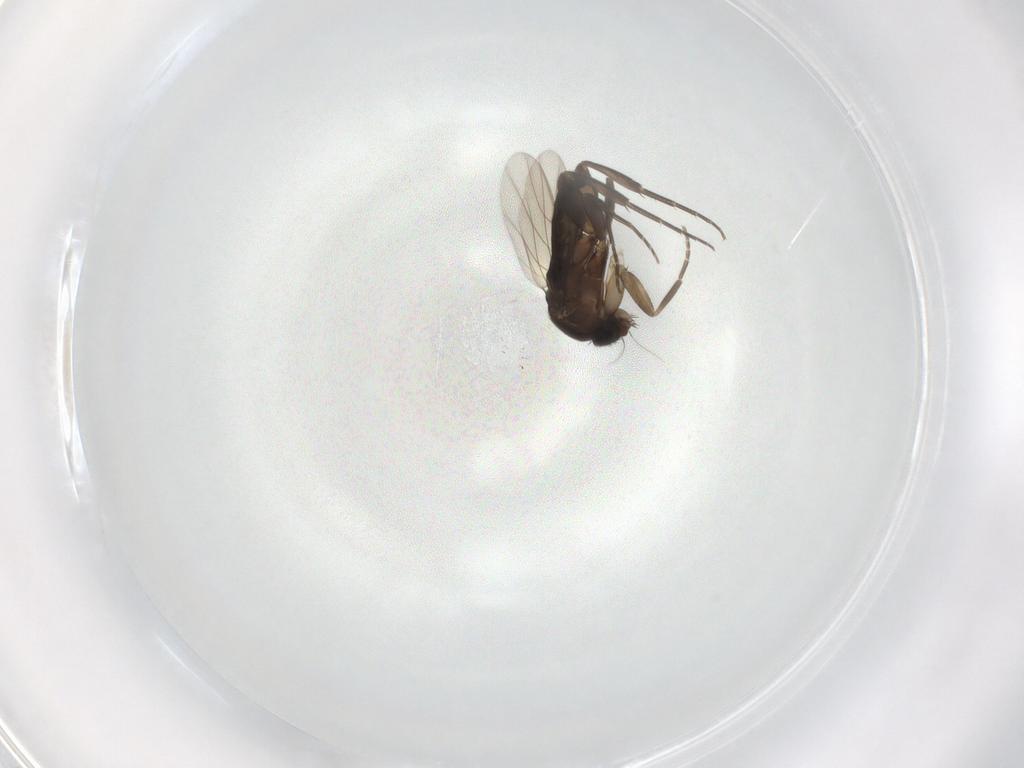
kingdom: Animalia
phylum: Arthropoda
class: Insecta
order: Diptera
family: Phoridae
